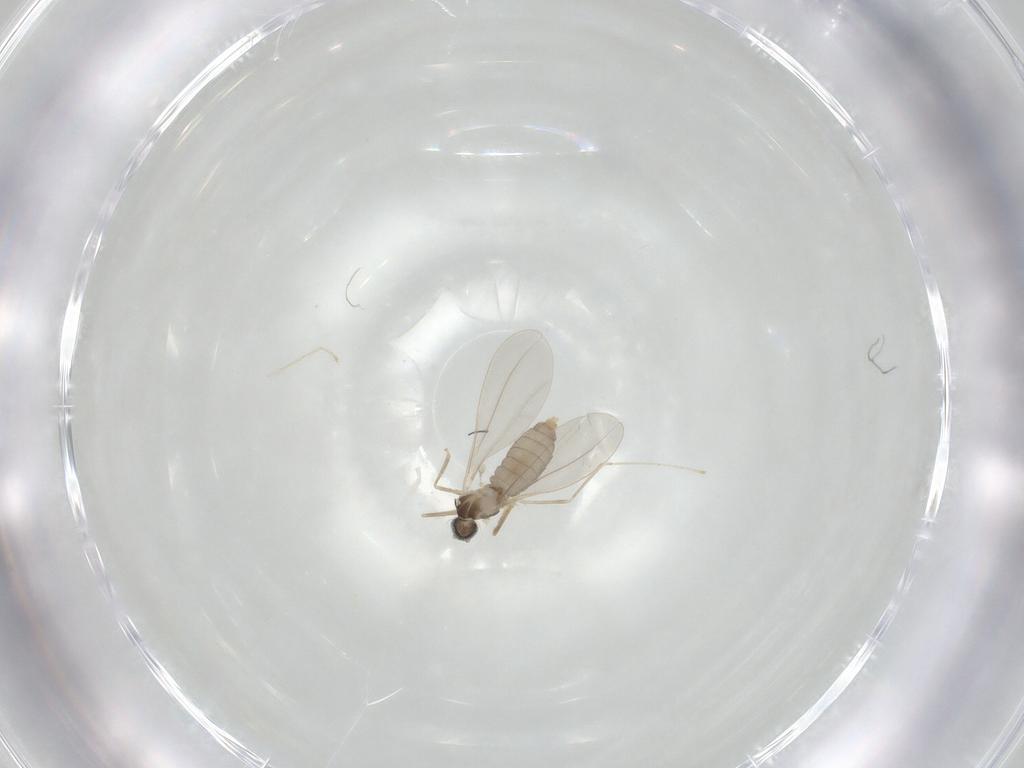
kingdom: Animalia
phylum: Arthropoda
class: Insecta
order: Diptera
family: Cecidomyiidae
